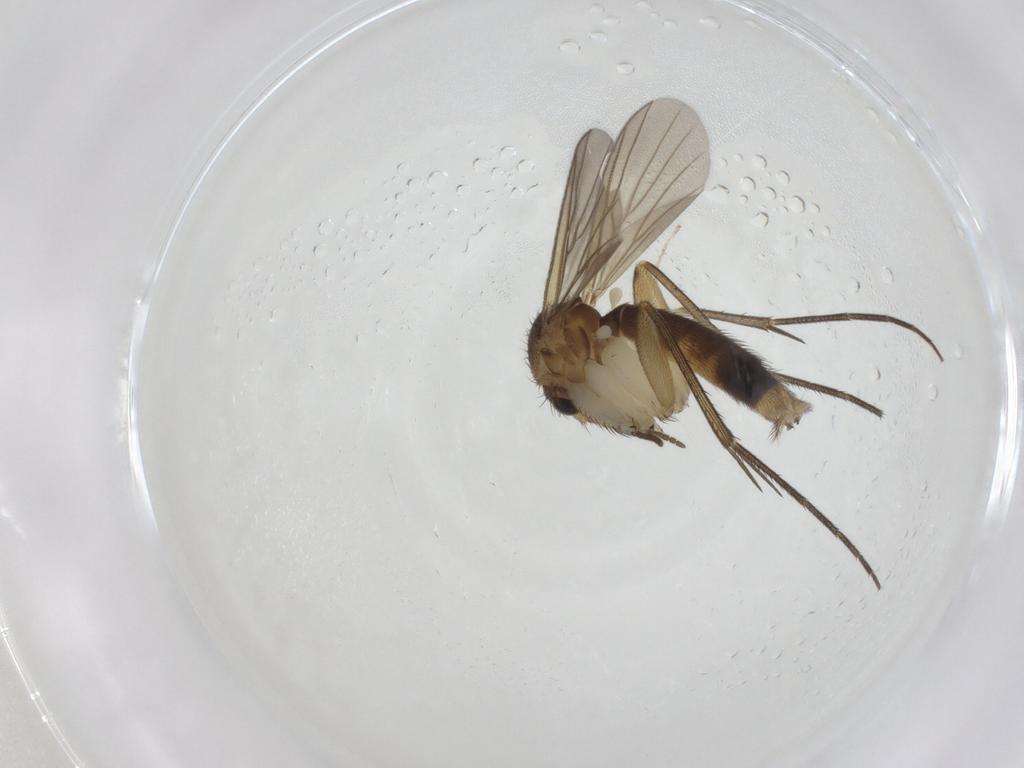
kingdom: Animalia
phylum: Arthropoda
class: Insecta
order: Diptera
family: Mycetophilidae
